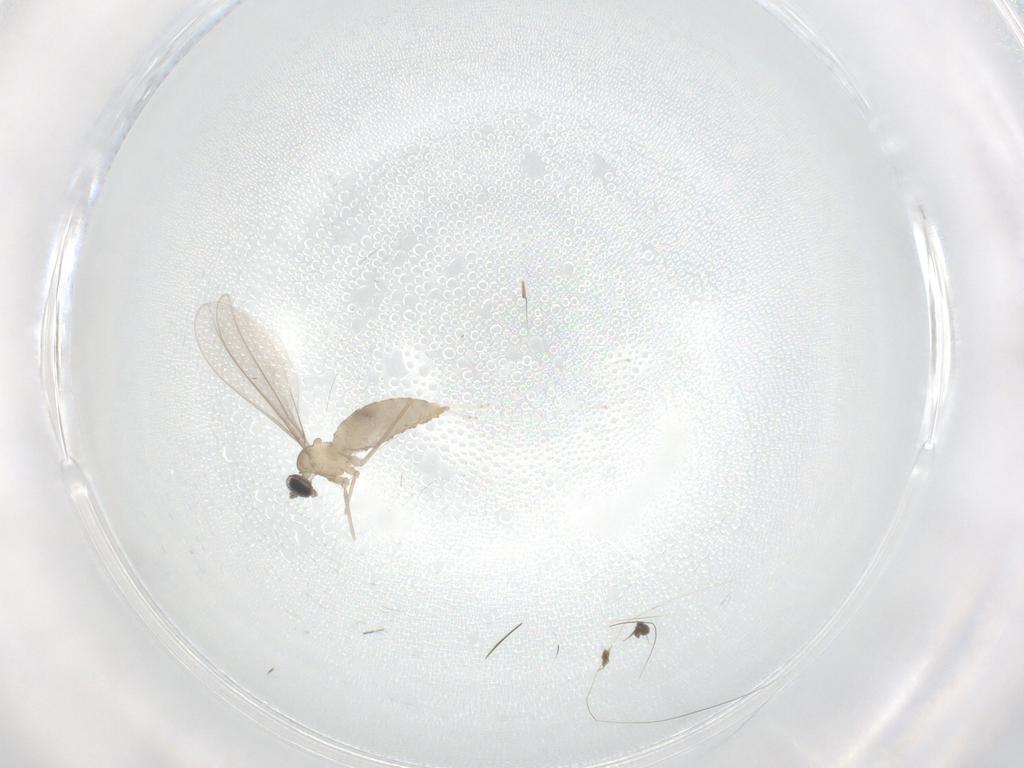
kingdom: Animalia
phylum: Arthropoda
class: Insecta
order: Diptera
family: Cecidomyiidae
